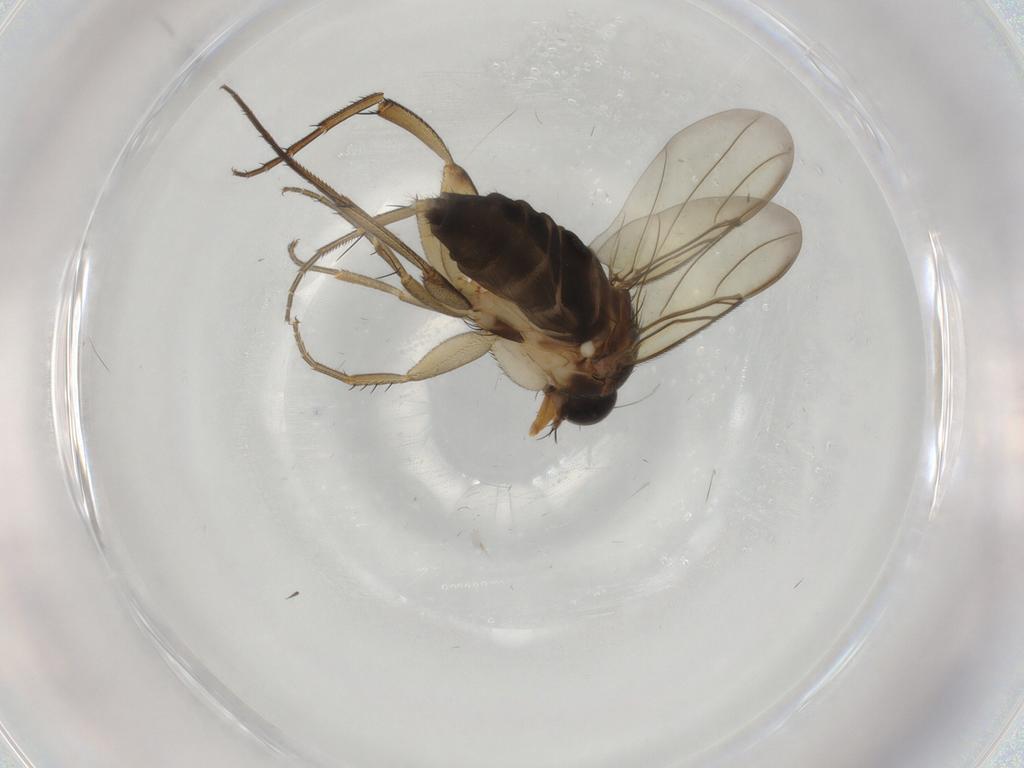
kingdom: Animalia
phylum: Arthropoda
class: Insecta
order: Diptera
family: Phoridae
